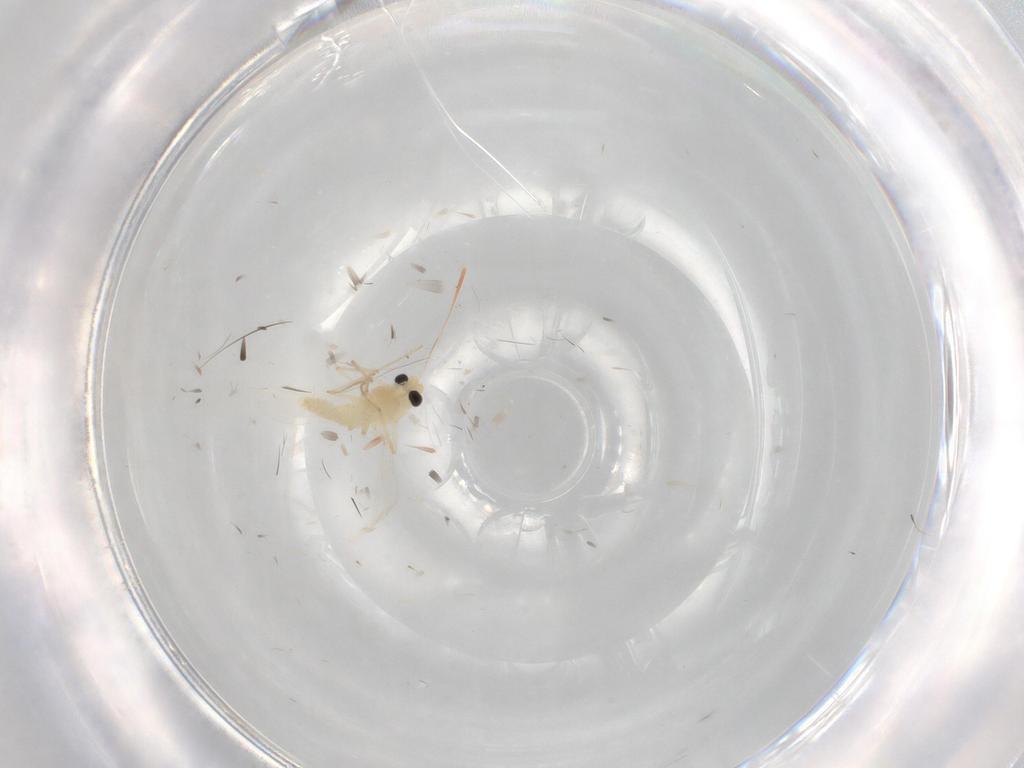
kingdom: Animalia
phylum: Arthropoda
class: Insecta
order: Diptera
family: Chironomidae
